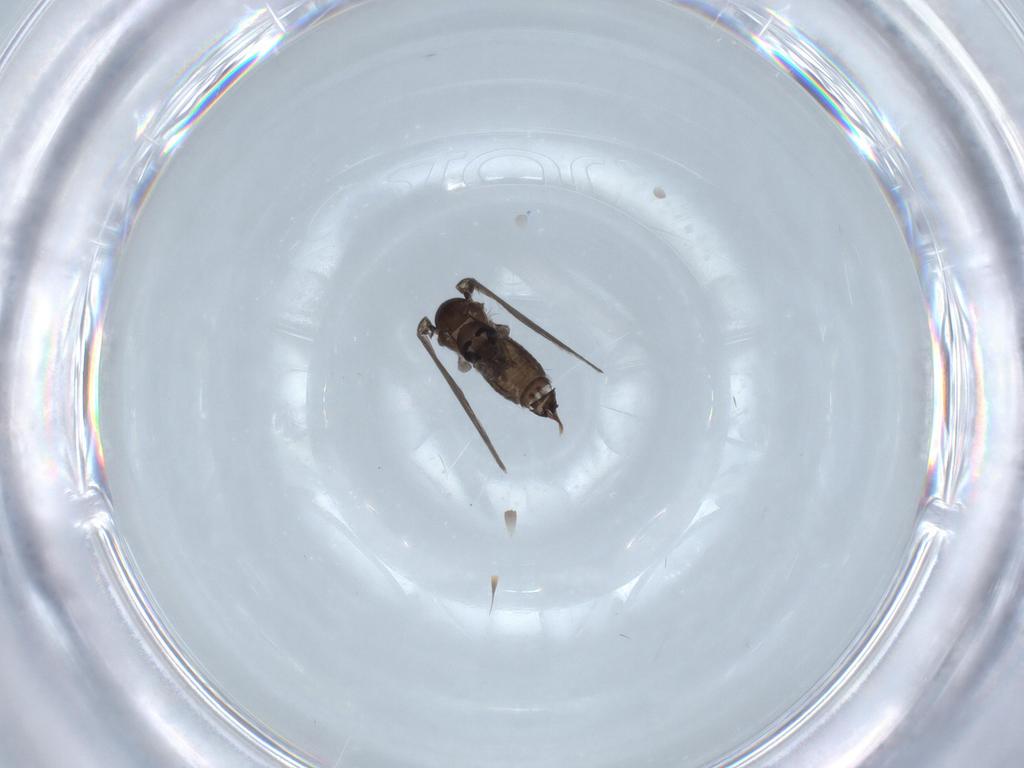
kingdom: Animalia
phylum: Arthropoda
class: Insecta
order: Diptera
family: Psychodidae
